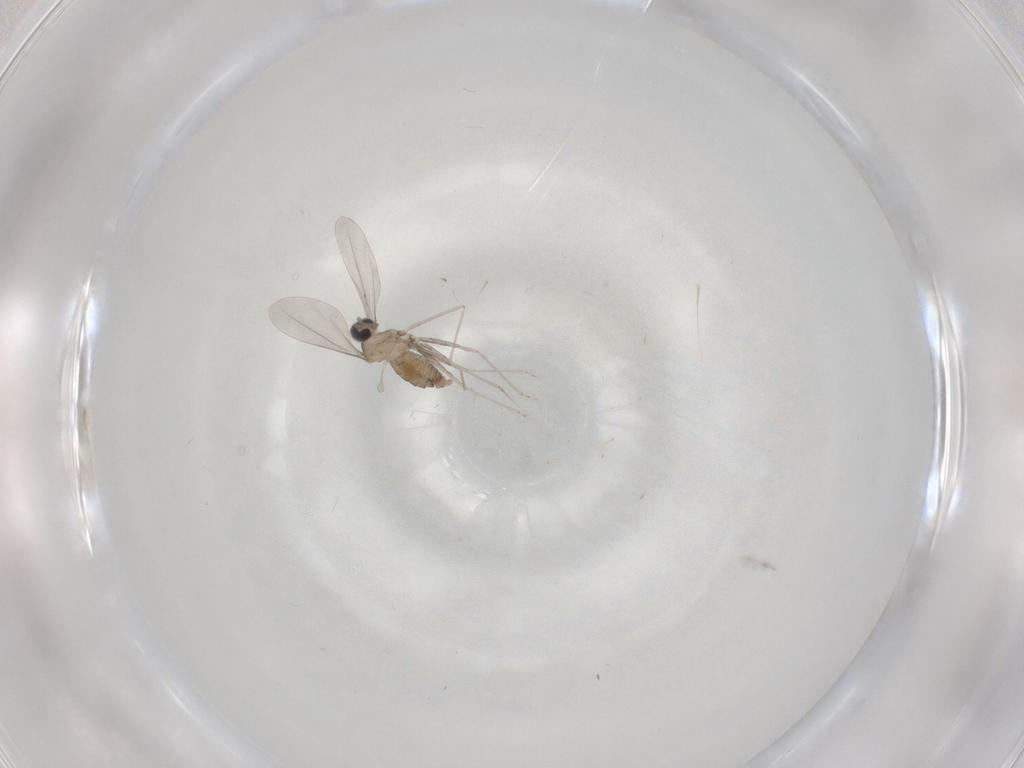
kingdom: Animalia
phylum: Arthropoda
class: Insecta
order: Diptera
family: Cecidomyiidae
